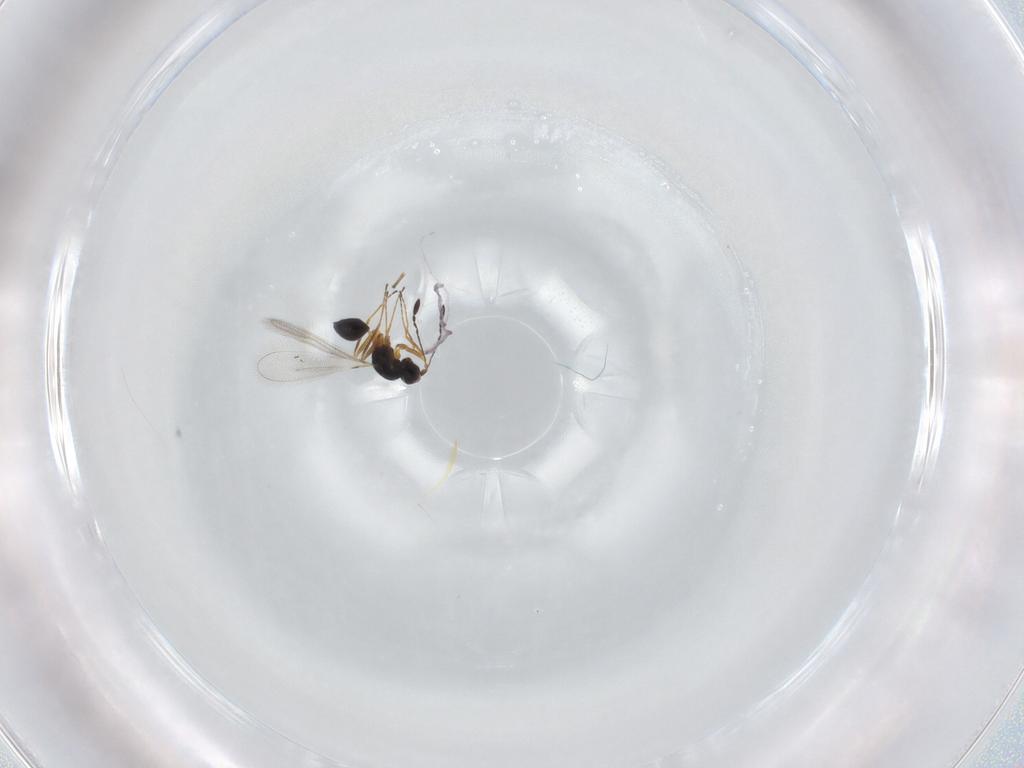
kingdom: Animalia
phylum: Arthropoda
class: Insecta
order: Hymenoptera
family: Mymaridae
